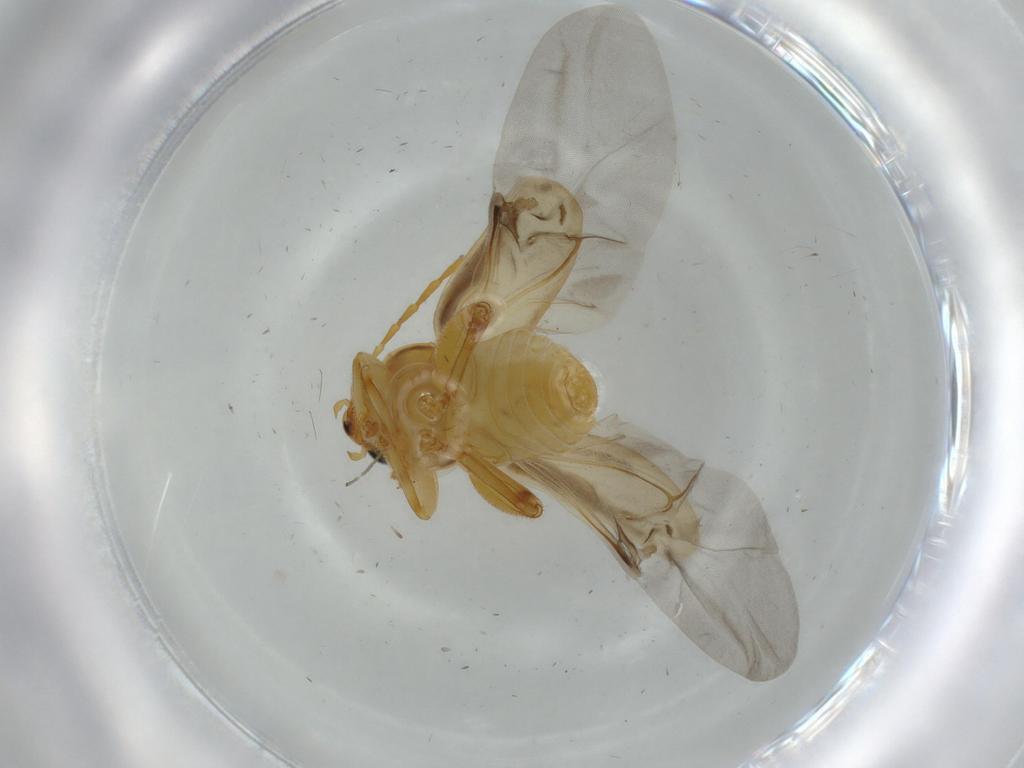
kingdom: Animalia
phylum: Arthropoda
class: Insecta
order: Coleoptera
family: Chrysomelidae
